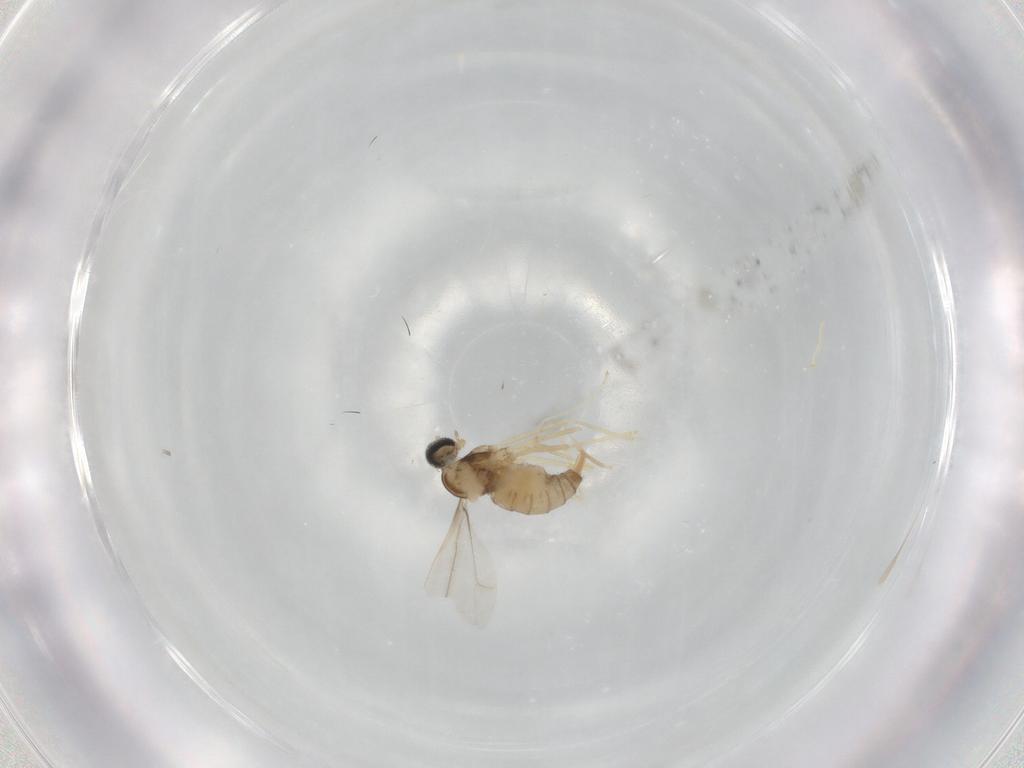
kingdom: Animalia
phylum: Arthropoda
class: Insecta
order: Diptera
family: Cecidomyiidae
